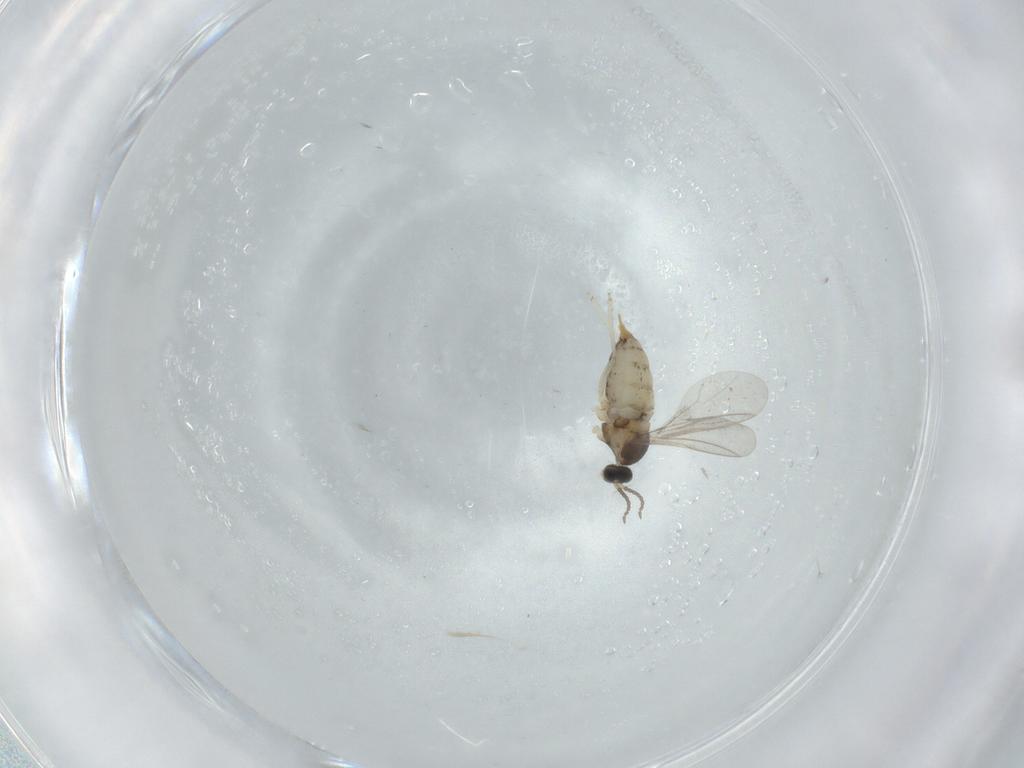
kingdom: Animalia
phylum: Arthropoda
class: Insecta
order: Diptera
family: Cecidomyiidae
